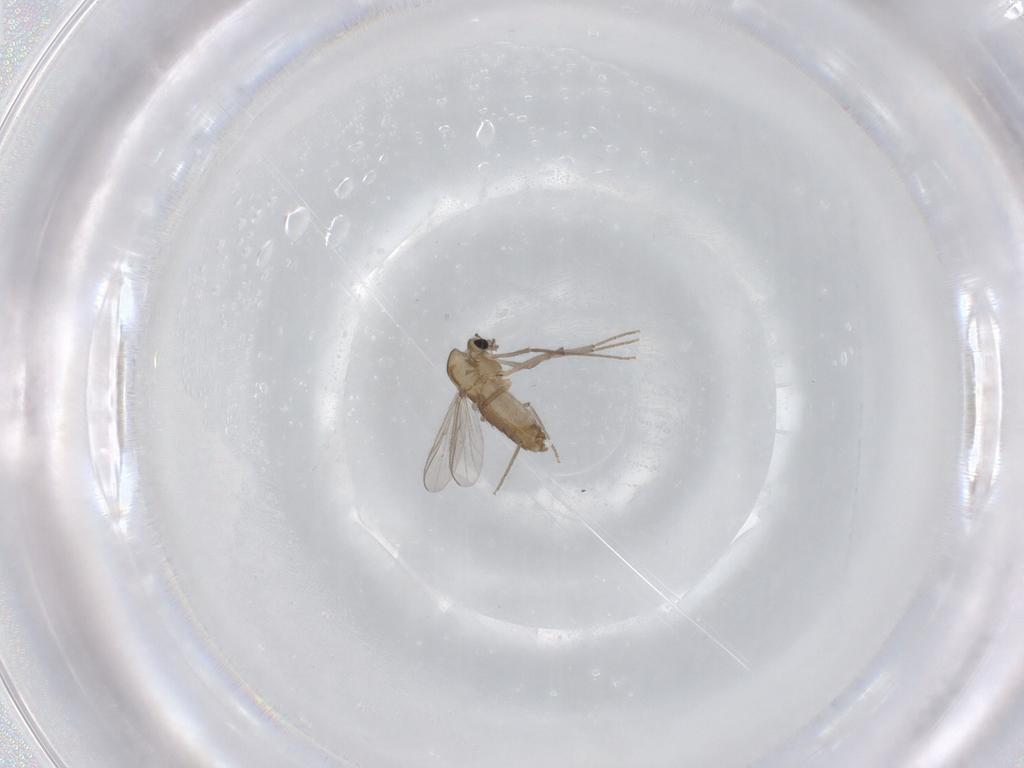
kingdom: Animalia
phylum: Arthropoda
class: Insecta
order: Diptera
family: Chironomidae
